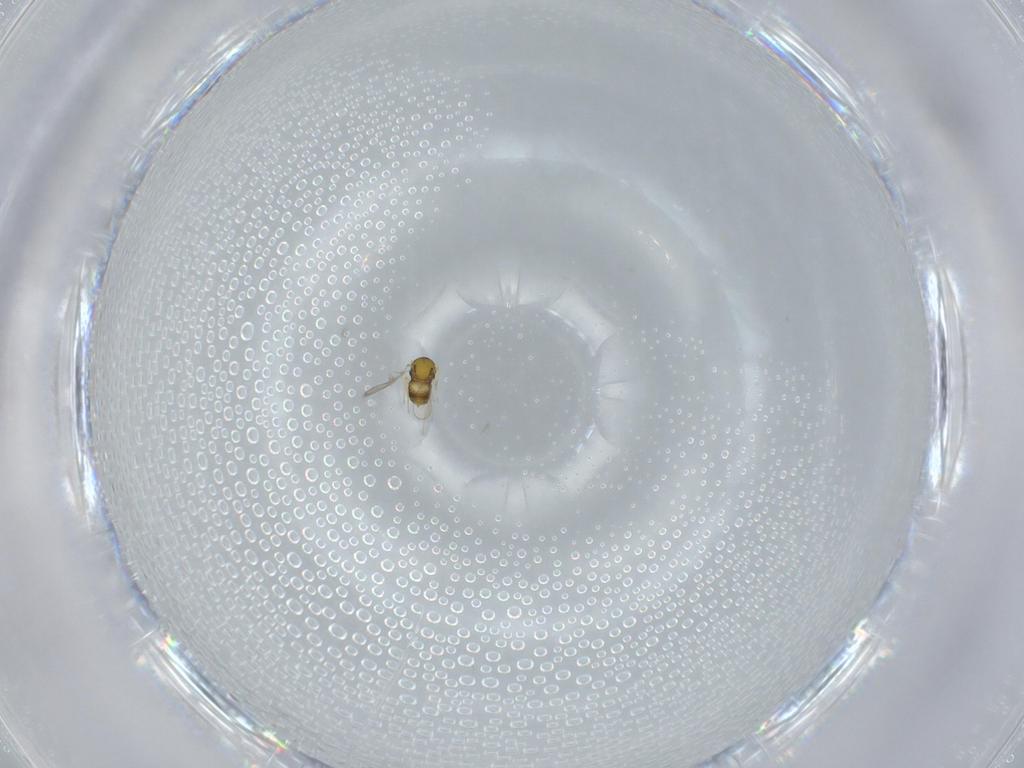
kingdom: Animalia
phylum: Arthropoda
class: Insecta
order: Hymenoptera
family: Aphelinidae
